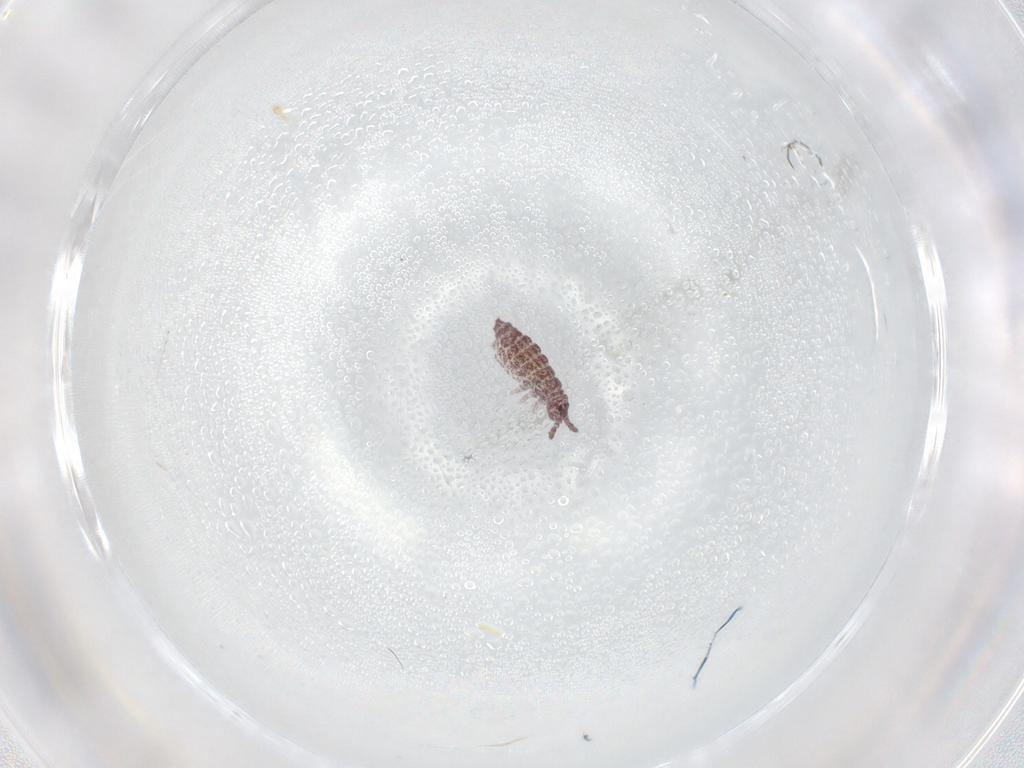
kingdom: Animalia
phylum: Arthropoda
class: Collembola
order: Poduromorpha
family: Hypogastruridae
